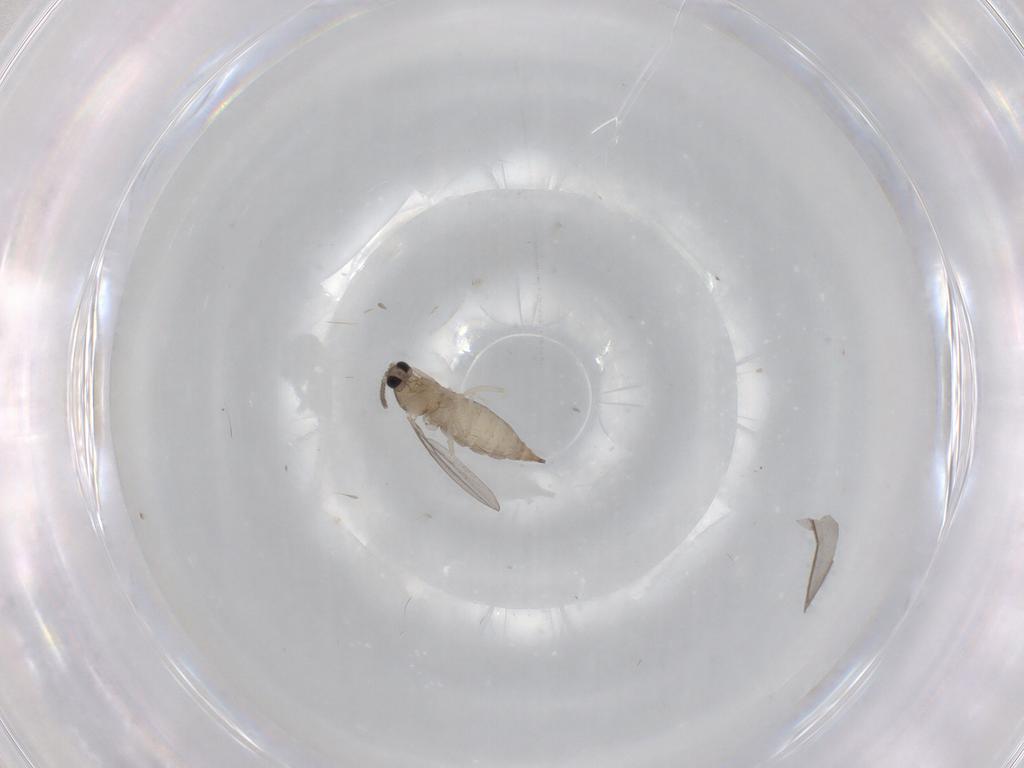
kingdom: Animalia
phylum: Arthropoda
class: Insecta
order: Diptera
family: Cecidomyiidae
